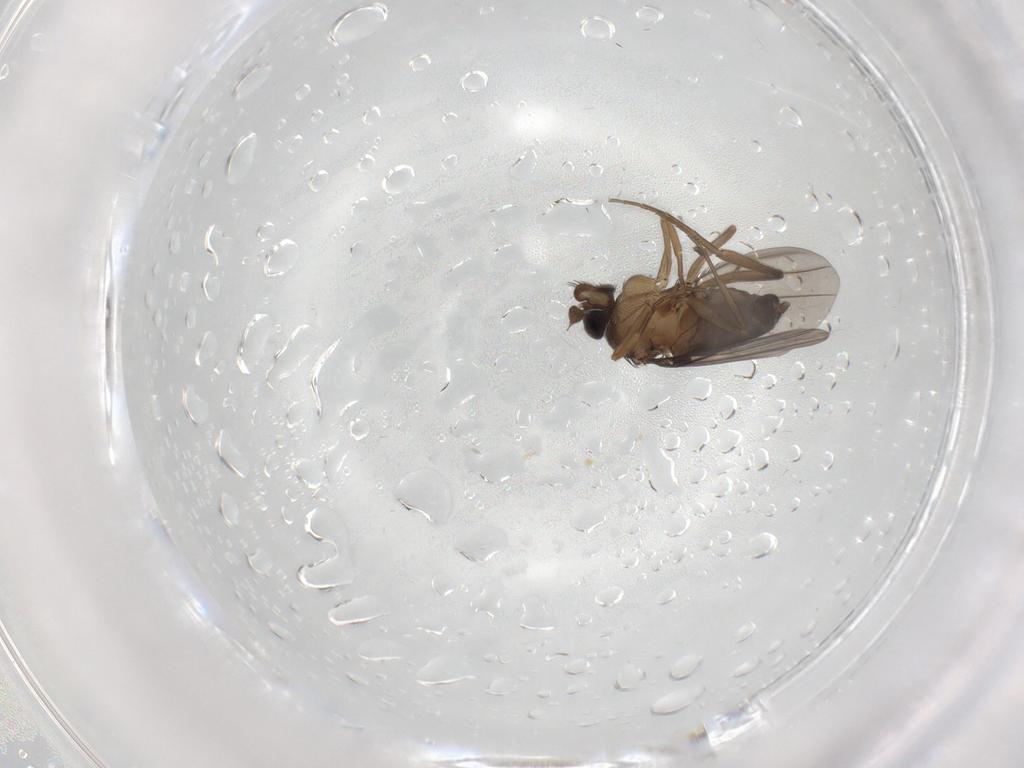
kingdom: Animalia
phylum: Arthropoda
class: Insecta
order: Diptera
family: Phoridae
